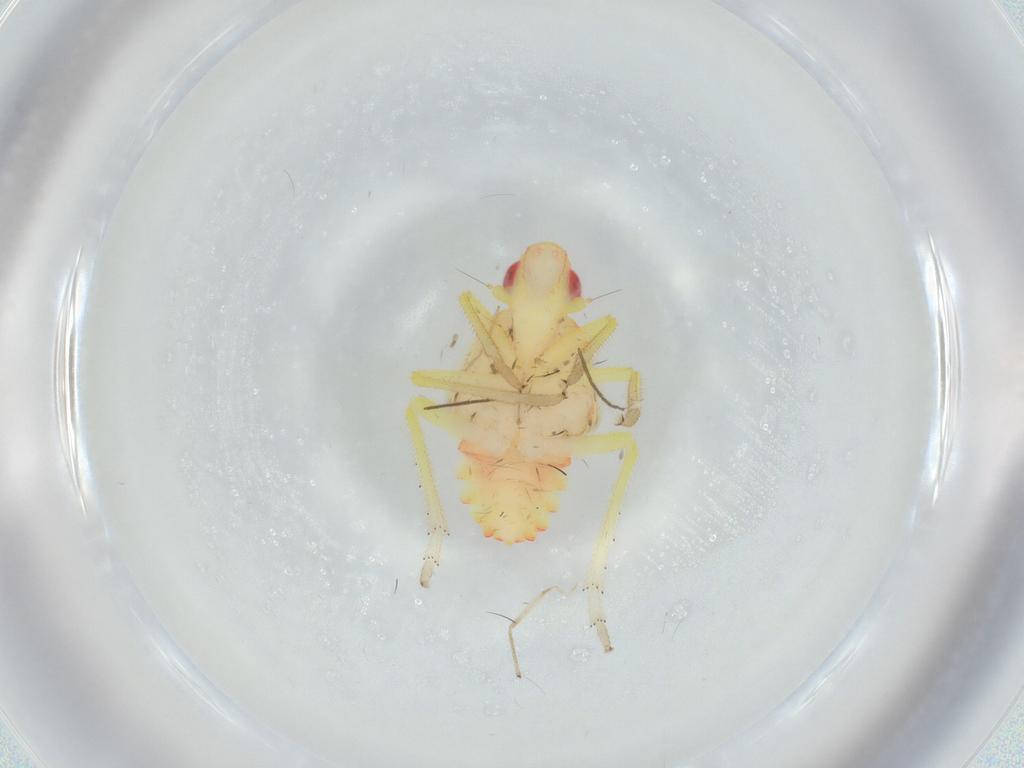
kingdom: Animalia
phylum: Arthropoda
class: Insecta
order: Hemiptera
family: Tropiduchidae
